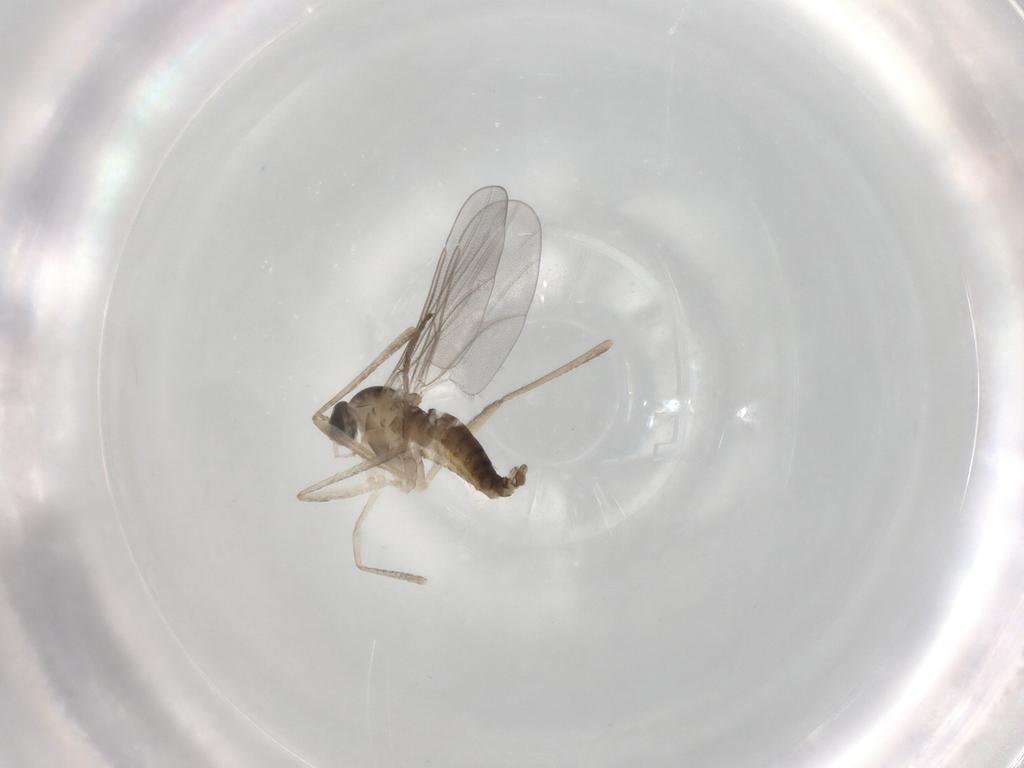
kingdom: Animalia
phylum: Arthropoda
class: Insecta
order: Diptera
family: Cecidomyiidae
